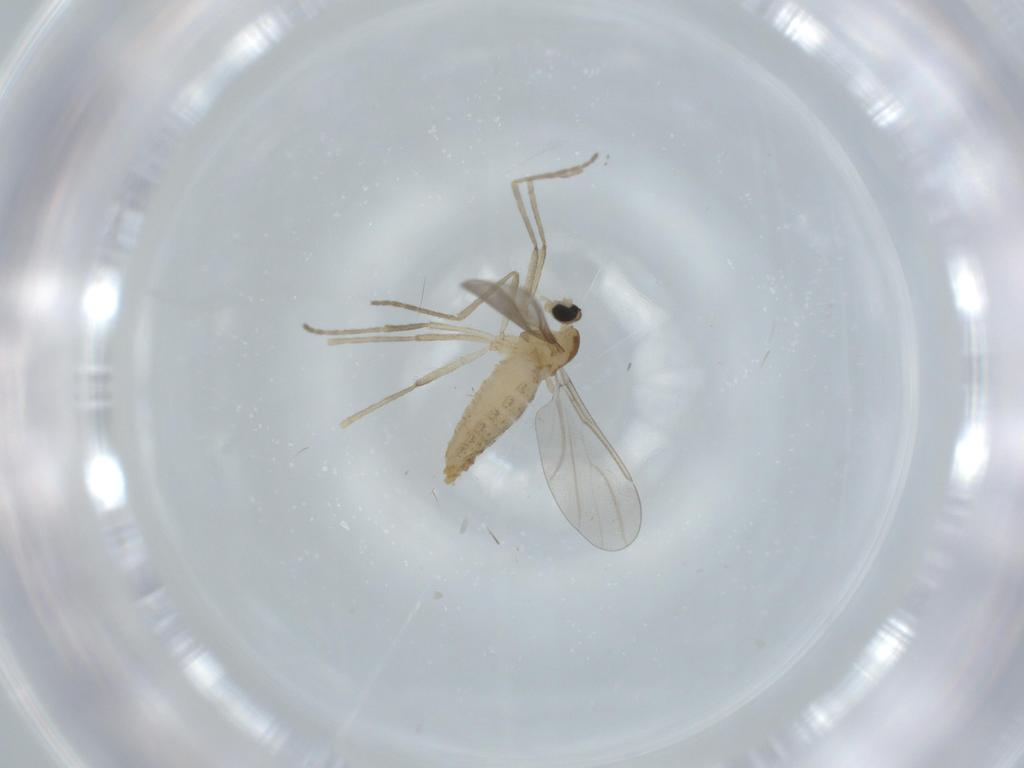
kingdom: Animalia
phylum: Arthropoda
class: Insecta
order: Diptera
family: Cecidomyiidae
